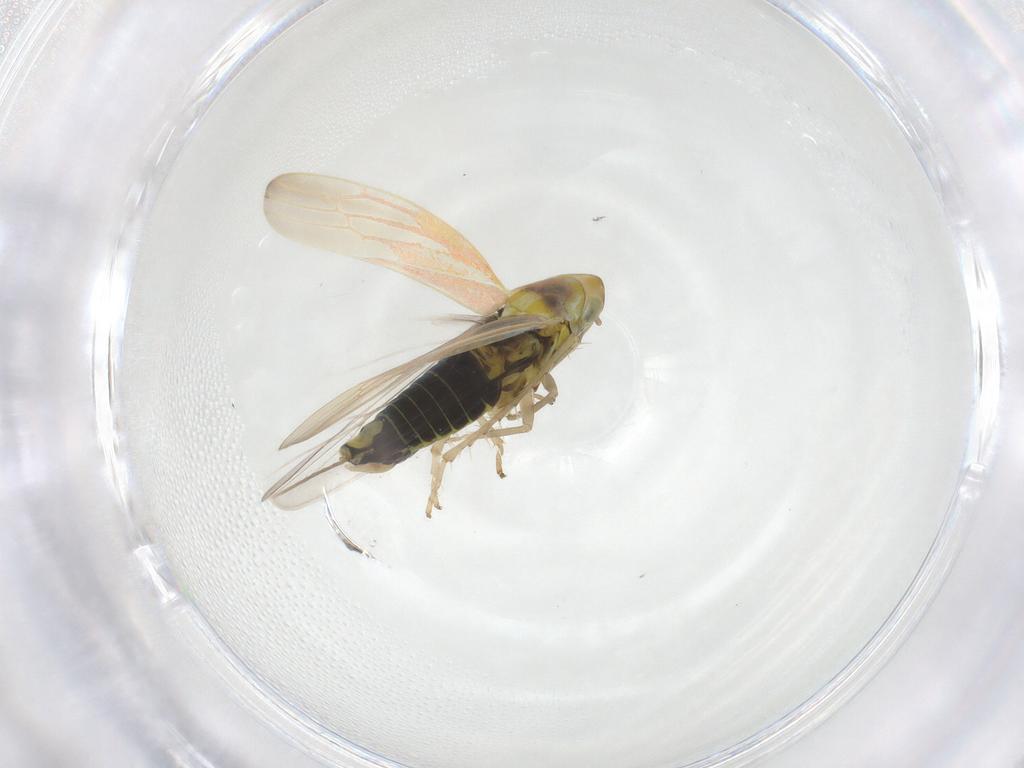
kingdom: Animalia
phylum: Arthropoda
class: Insecta
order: Hemiptera
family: Cicadellidae
